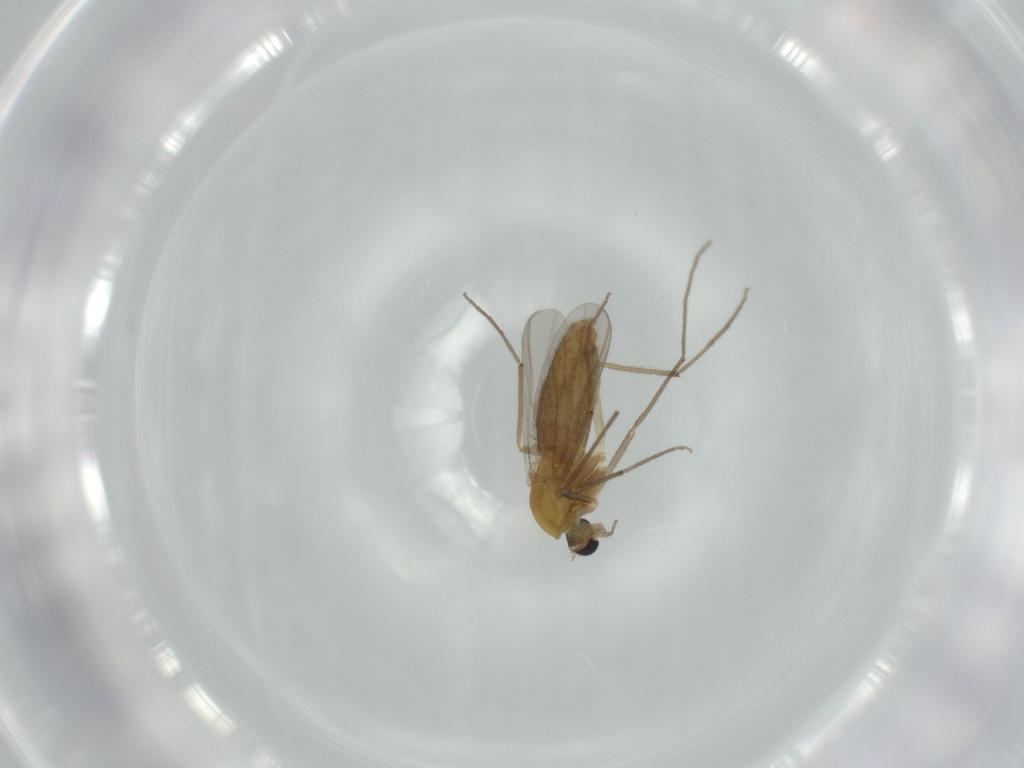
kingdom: Animalia
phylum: Arthropoda
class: Insecta
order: Diptera
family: Chironomidae
